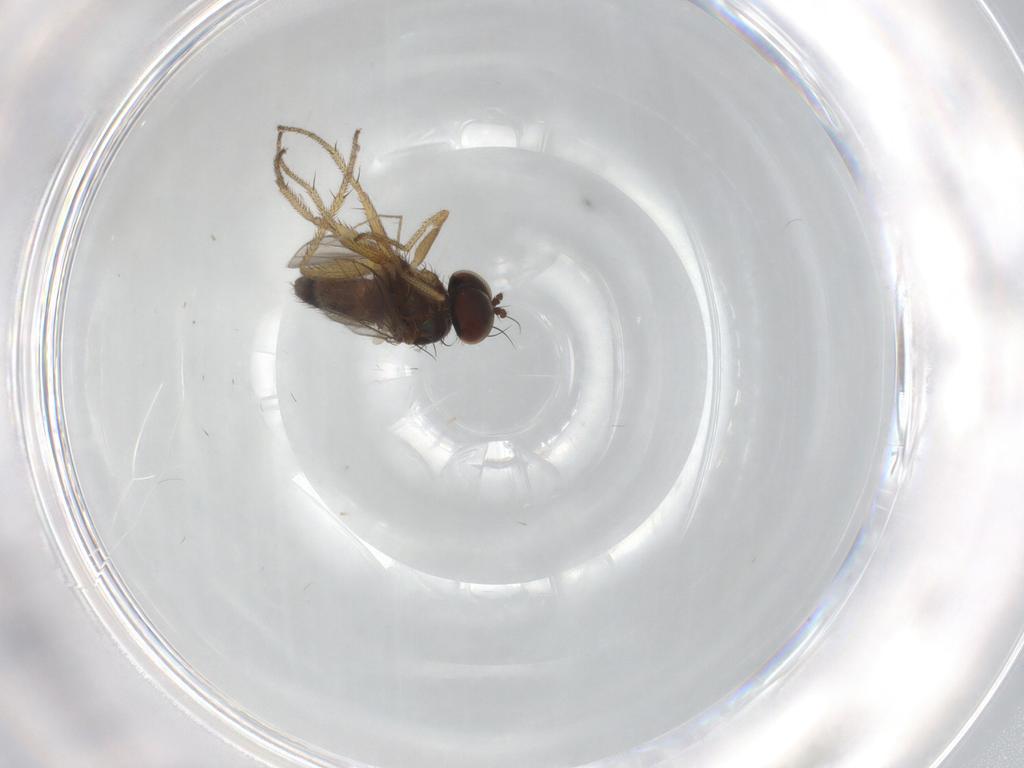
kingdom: Animalia
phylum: Arthropoda
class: Insecta
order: Diptera
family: Chironomidae
